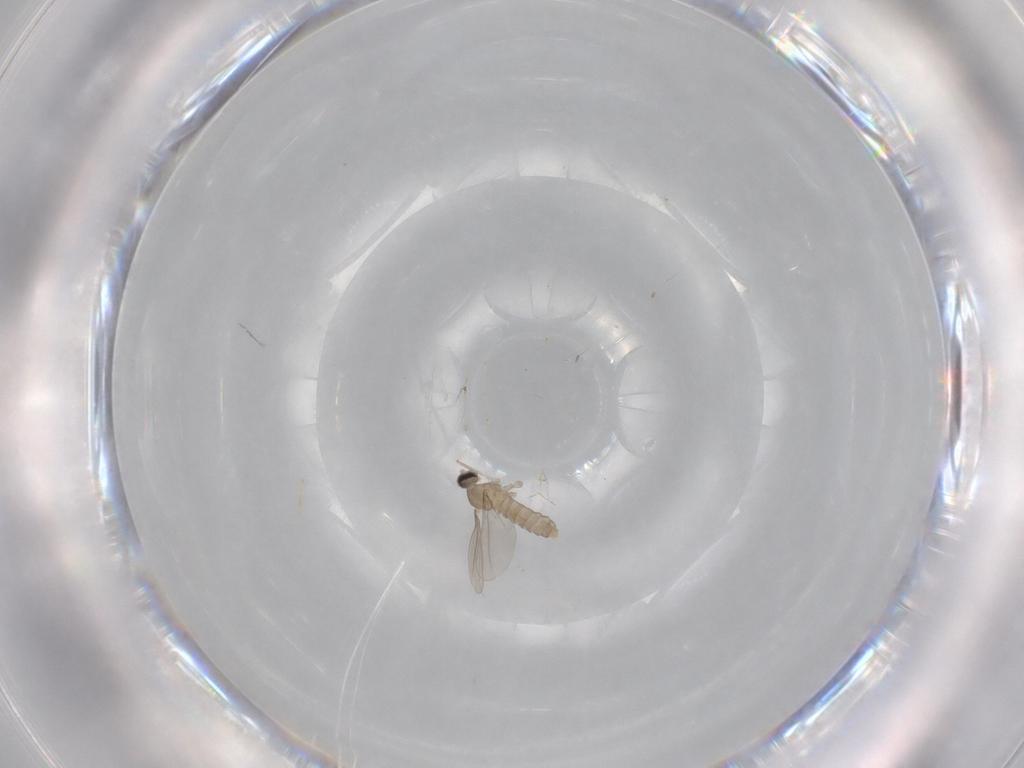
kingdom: Animalia
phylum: Arthropoda
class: Insecta
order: Diptera
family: Cecidomyiidae
